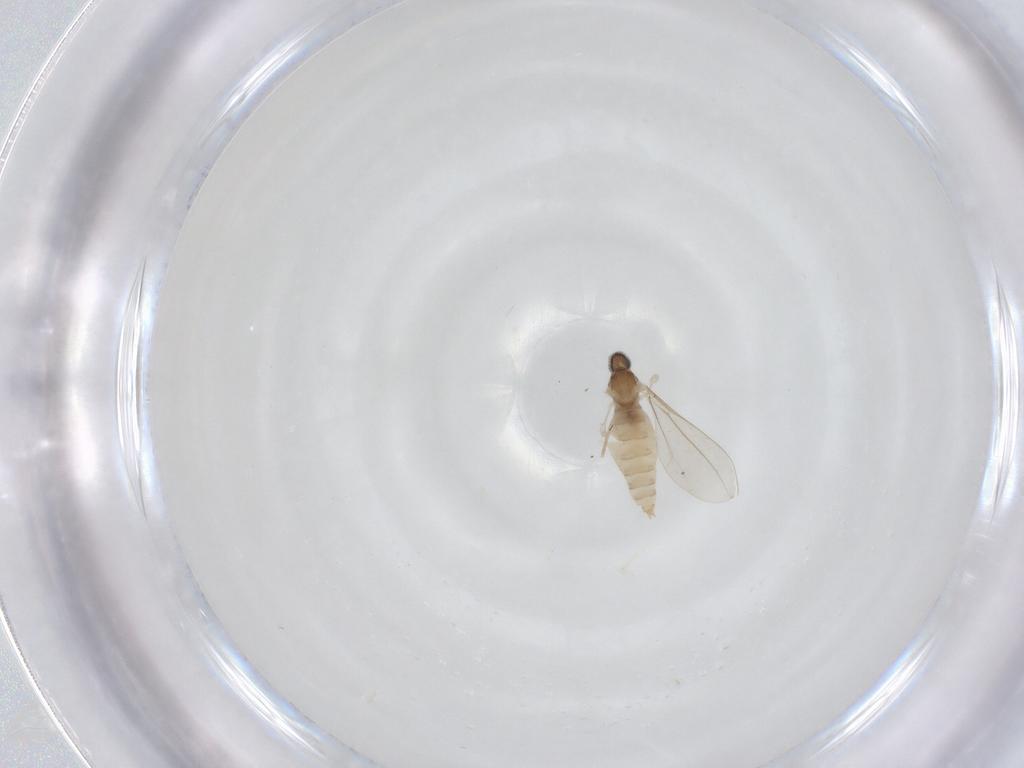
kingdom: Animalia
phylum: Arthropoda
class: Insecta
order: Diptera
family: Cecidomyiidae
